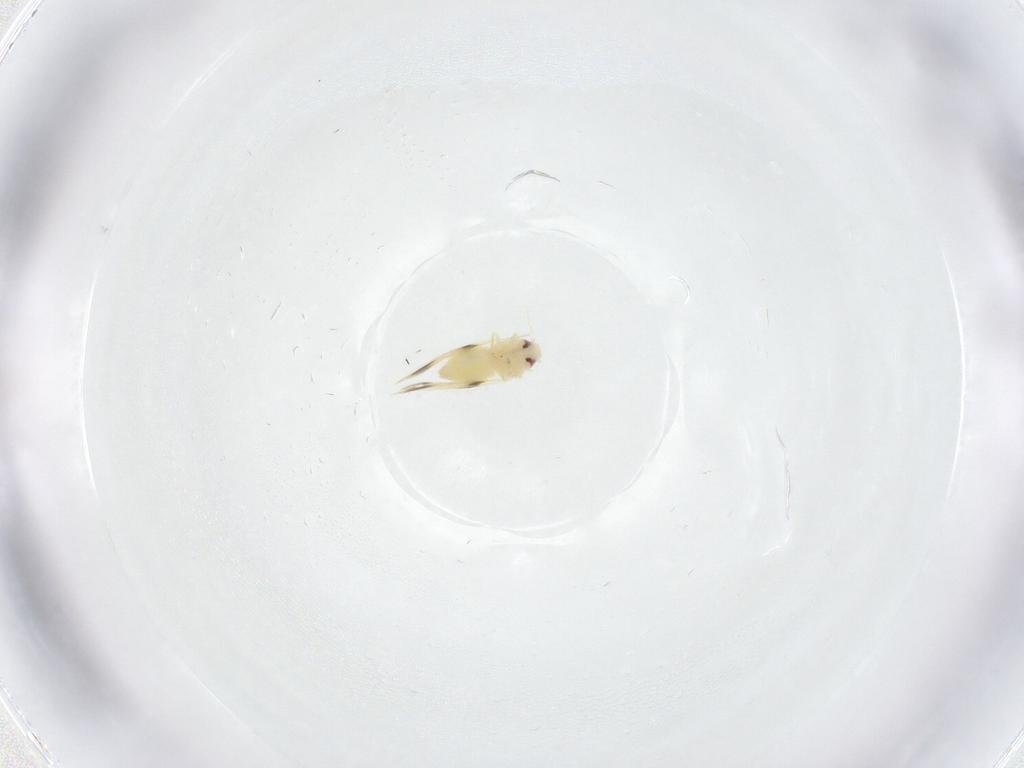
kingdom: Animalia
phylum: Arthropoda
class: Insecta
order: Hemiptera
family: Aleyrodidae
